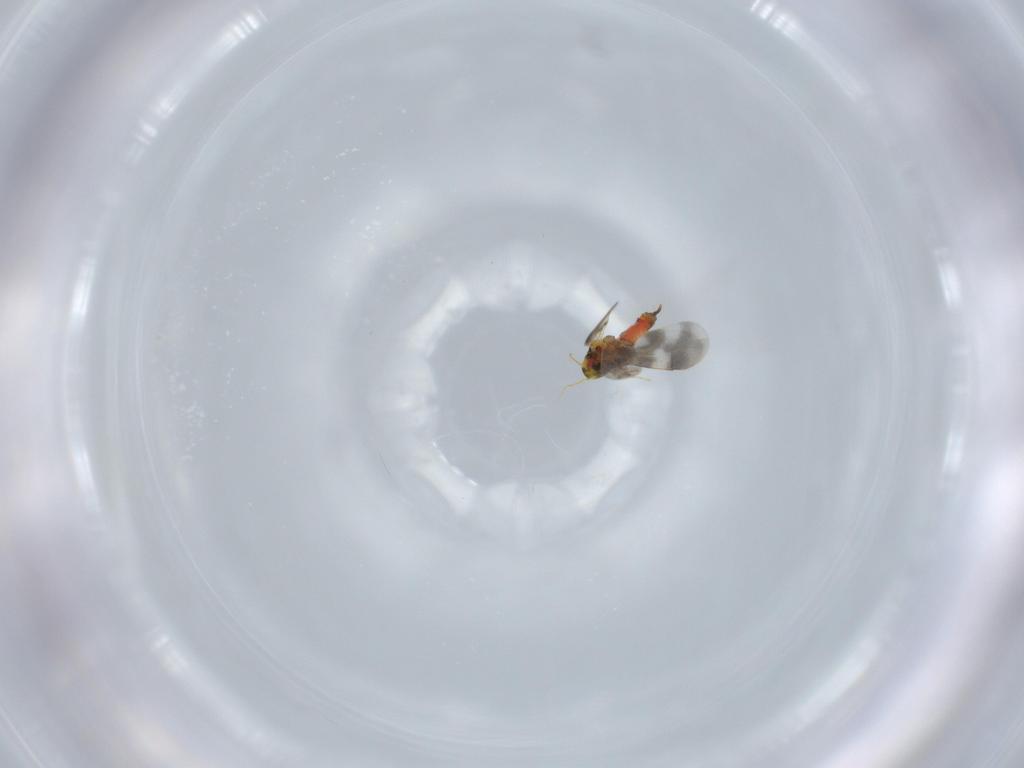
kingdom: Animalia
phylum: Arthropoda
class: Insecta
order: Hemiptera
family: Aleyrodidae
